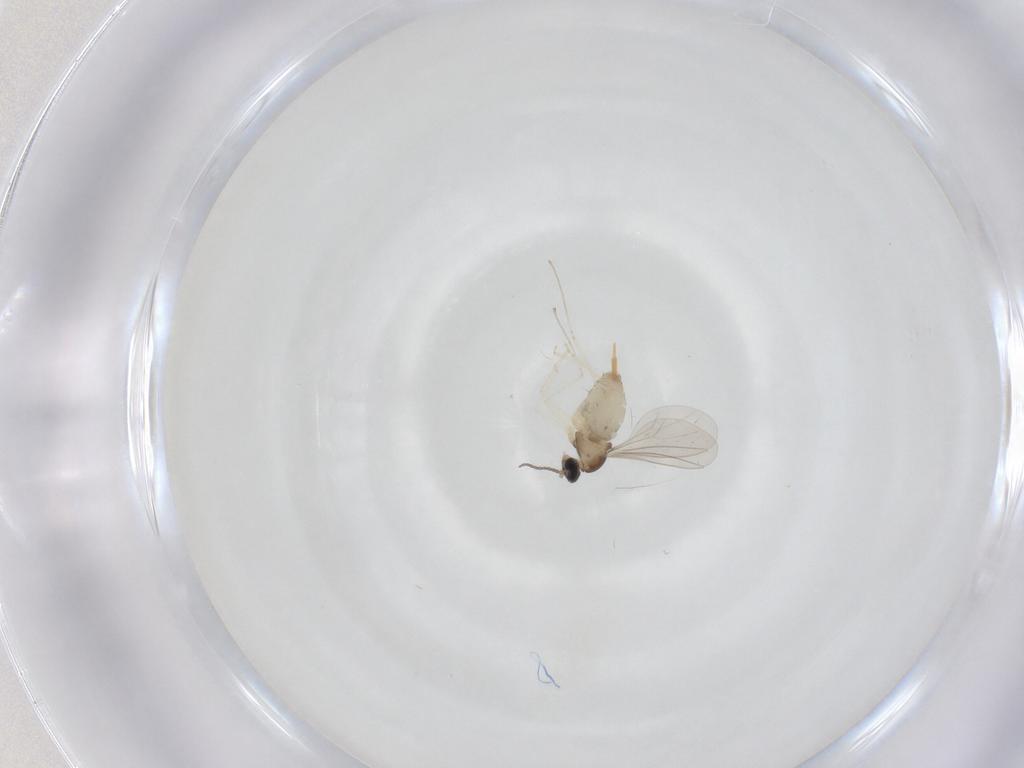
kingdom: Animalia
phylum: Arthropoda
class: Insecta
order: Diptera
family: Cecidomyiidae
